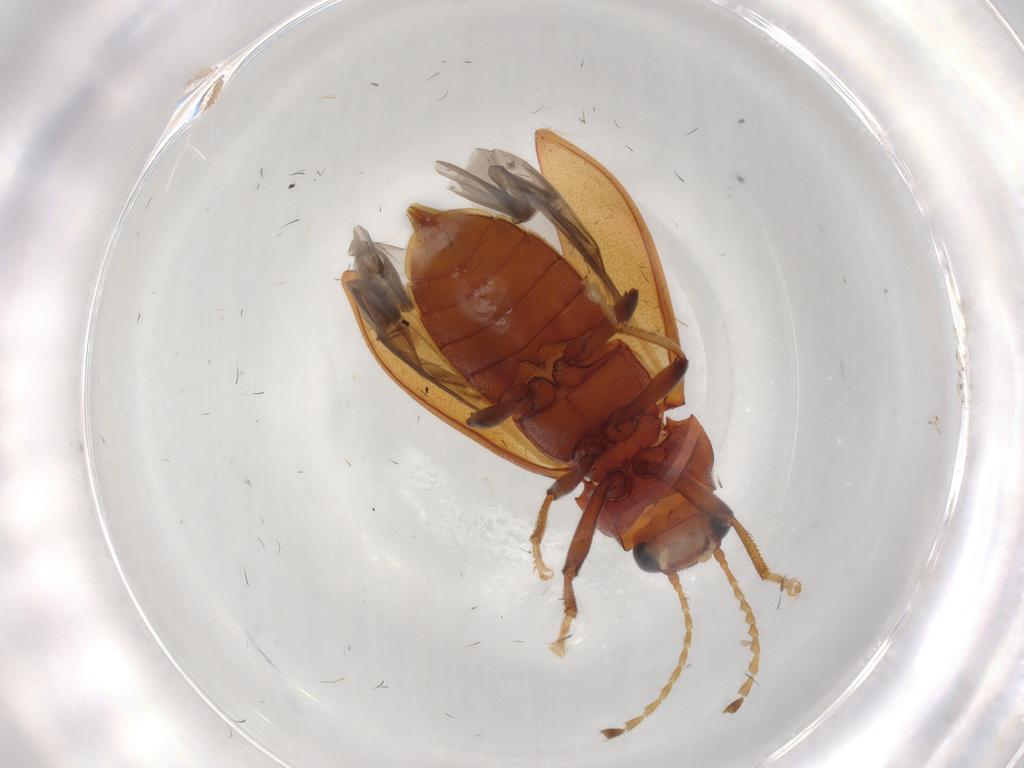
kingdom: Animalia
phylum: Arthropoda
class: Insecta
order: Coleoptera
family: Ptilodactylidae
